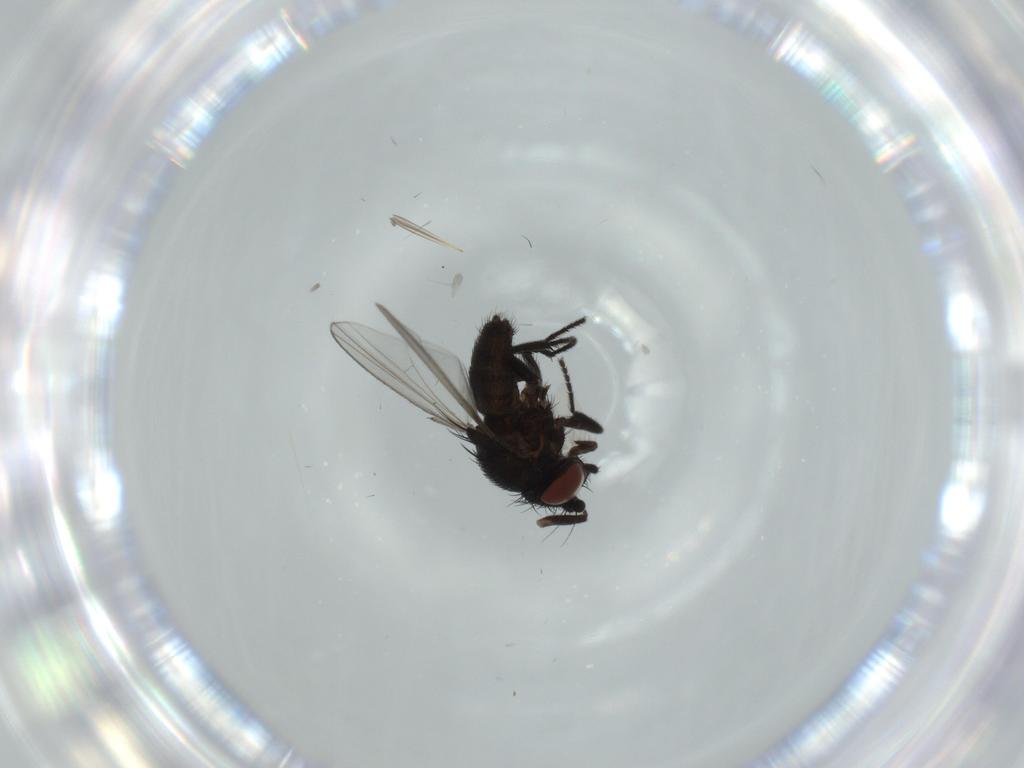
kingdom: Animalia
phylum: Arthropoda
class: Insecta
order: Diptera
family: Milichiidae
